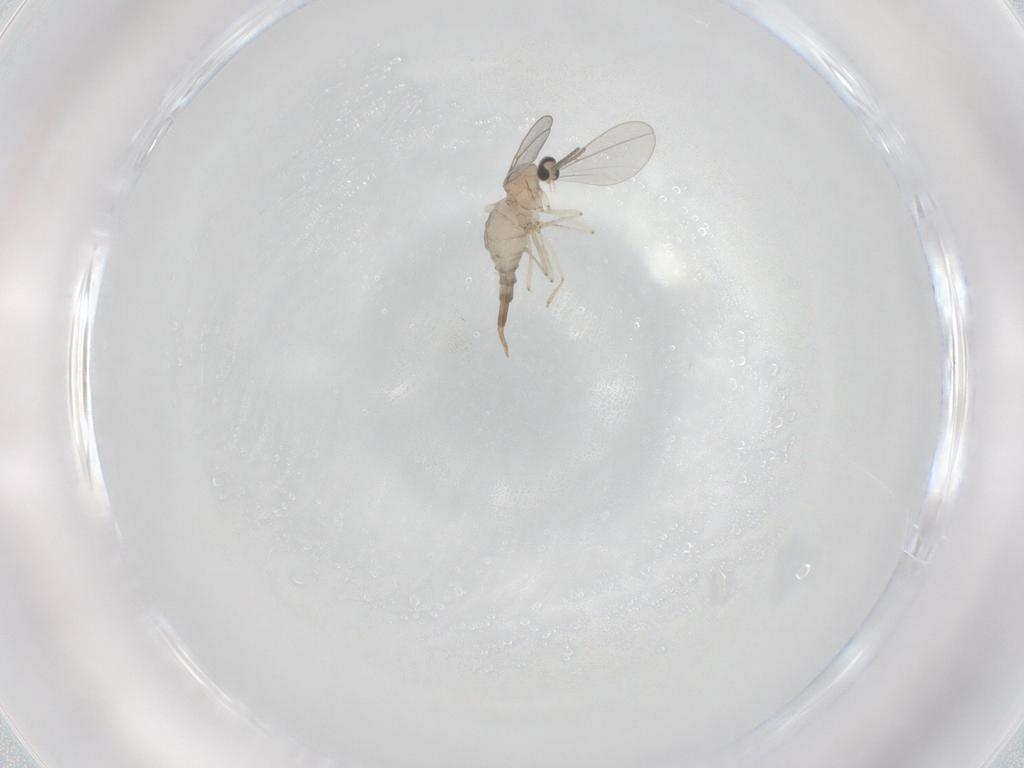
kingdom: Animalia
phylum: Arthropoda
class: Insecta
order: Diptera
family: Cecidomyiidae
